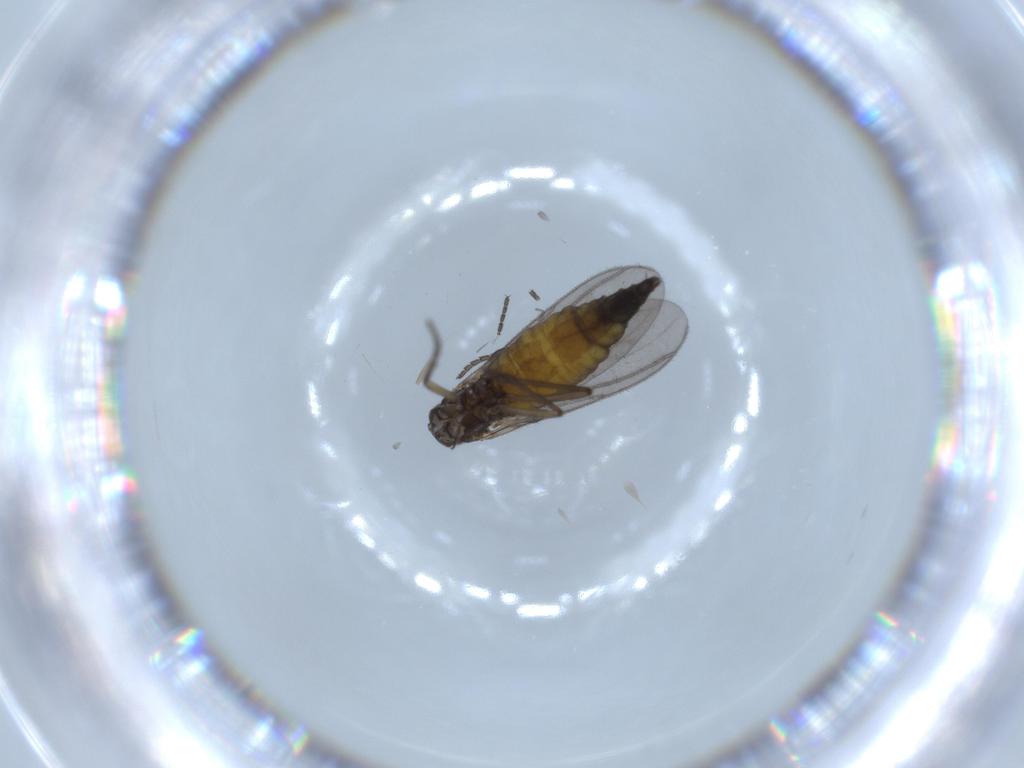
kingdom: Animalia
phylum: Arthropoda
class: Insecta
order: Diptera
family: Sciaridae
